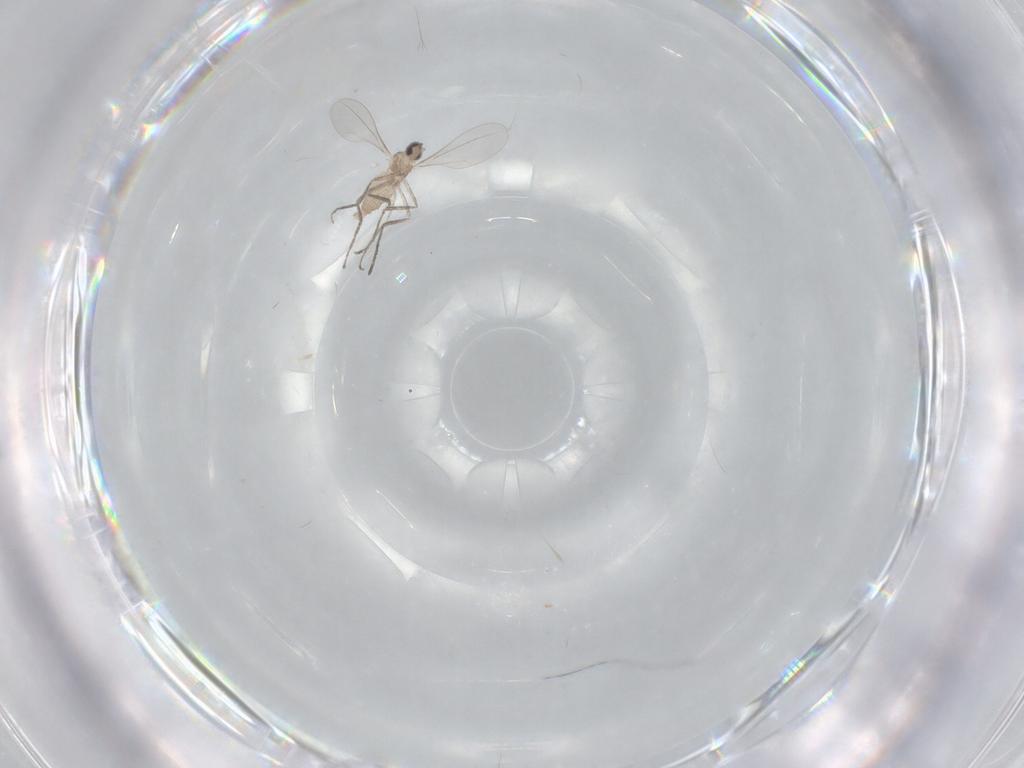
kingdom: Animalia
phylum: Arthropoda
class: Insecta
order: Diptera
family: Cecidomyiidae
